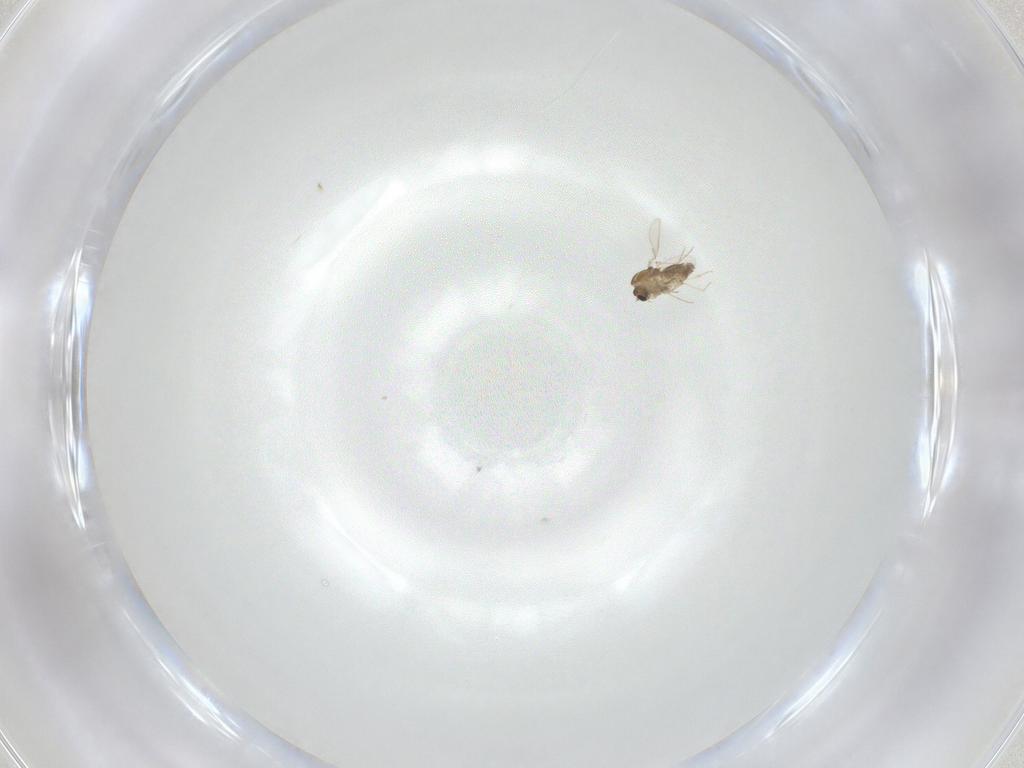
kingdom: Animalia
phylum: Arthropoda
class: Insecta
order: Diptera
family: Chironomidae
